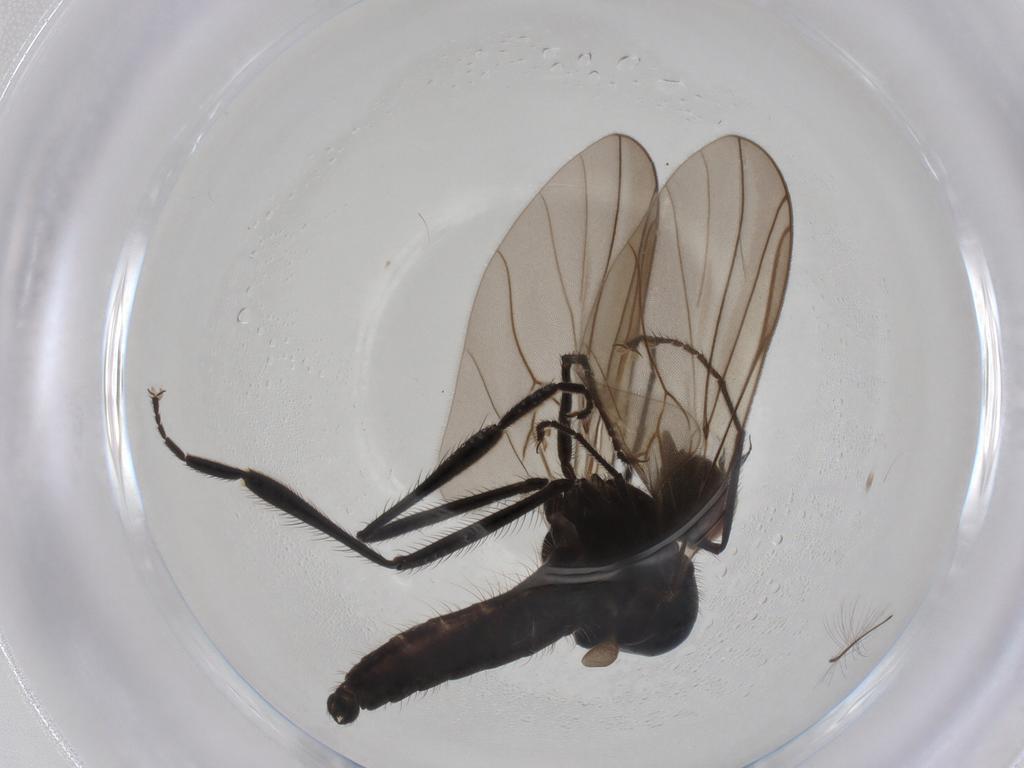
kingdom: Animalia
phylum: Arthropoda
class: Insecta
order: Diptera
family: Hybotidae
